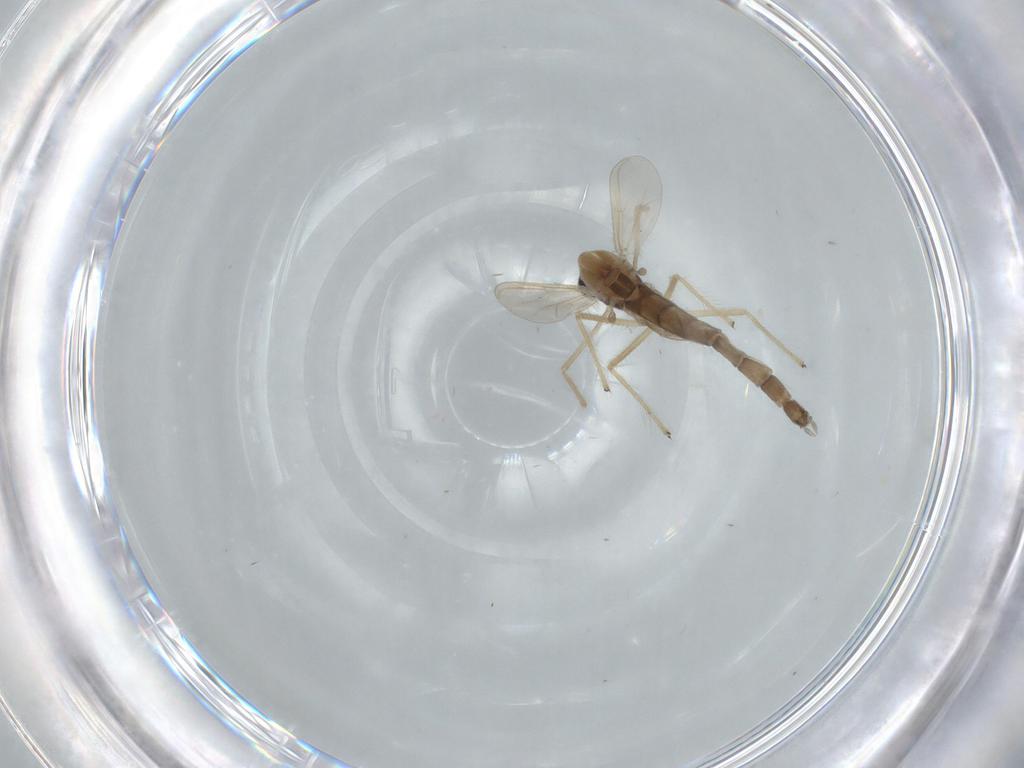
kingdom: Animalia
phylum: Arthropoda
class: Insecta
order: Diptera
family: Chironomidae
